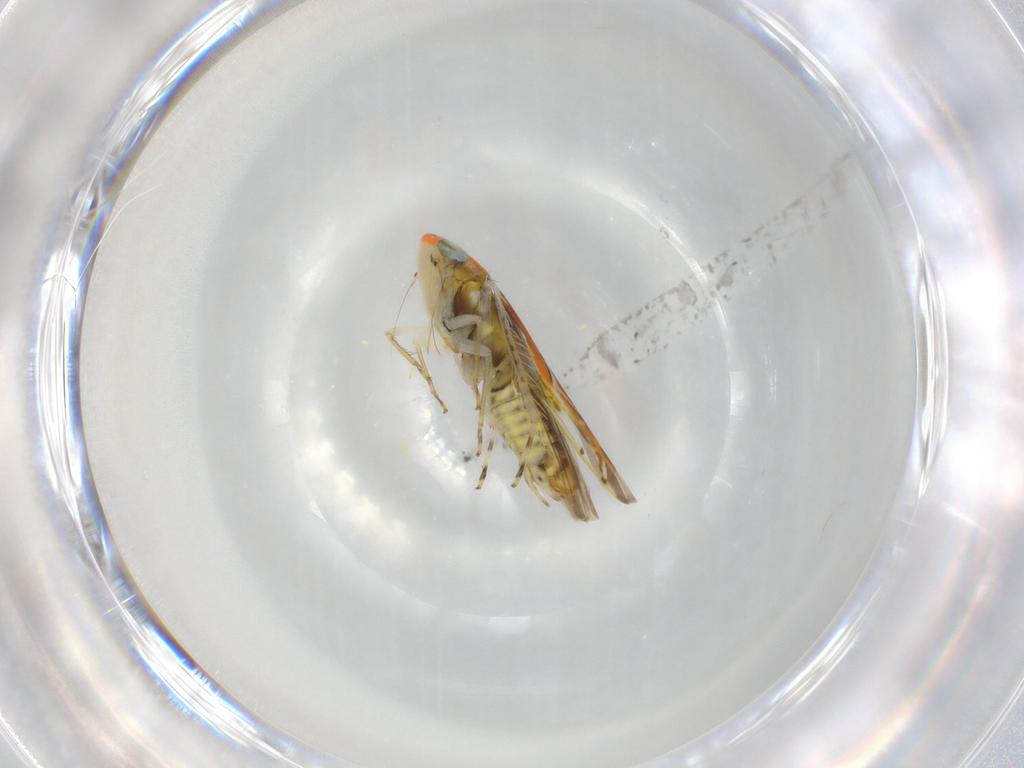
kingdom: Animalia
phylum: Arthropoda
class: Insecta
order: Hemiptera
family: Cicadellidae
